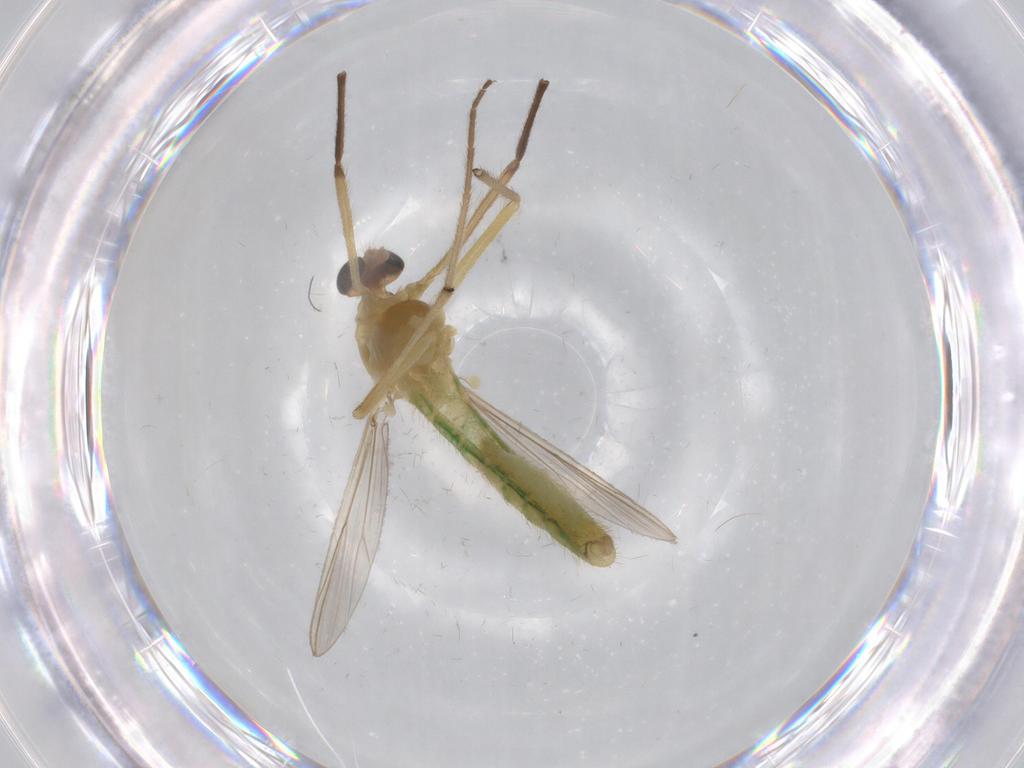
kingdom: Animalia
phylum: Arthropoda
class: Insecta
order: Diptera
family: Chironomidae
